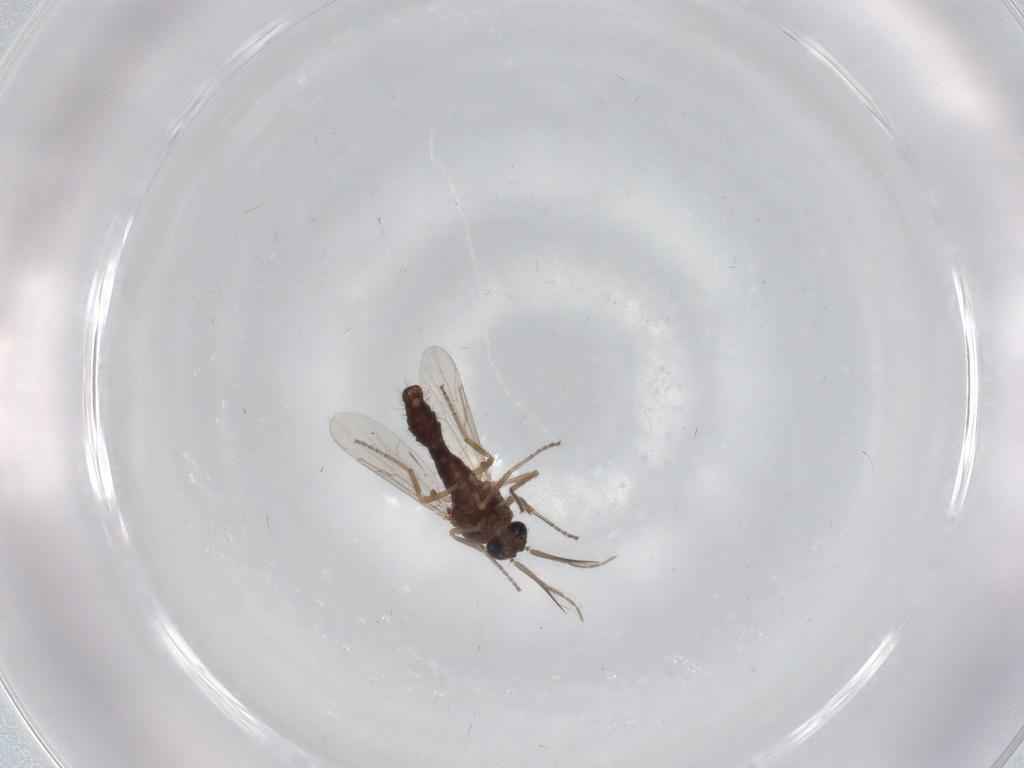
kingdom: Animalia
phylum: Arthropoda
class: Insecta
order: Diptera
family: Ceratopogonidae
